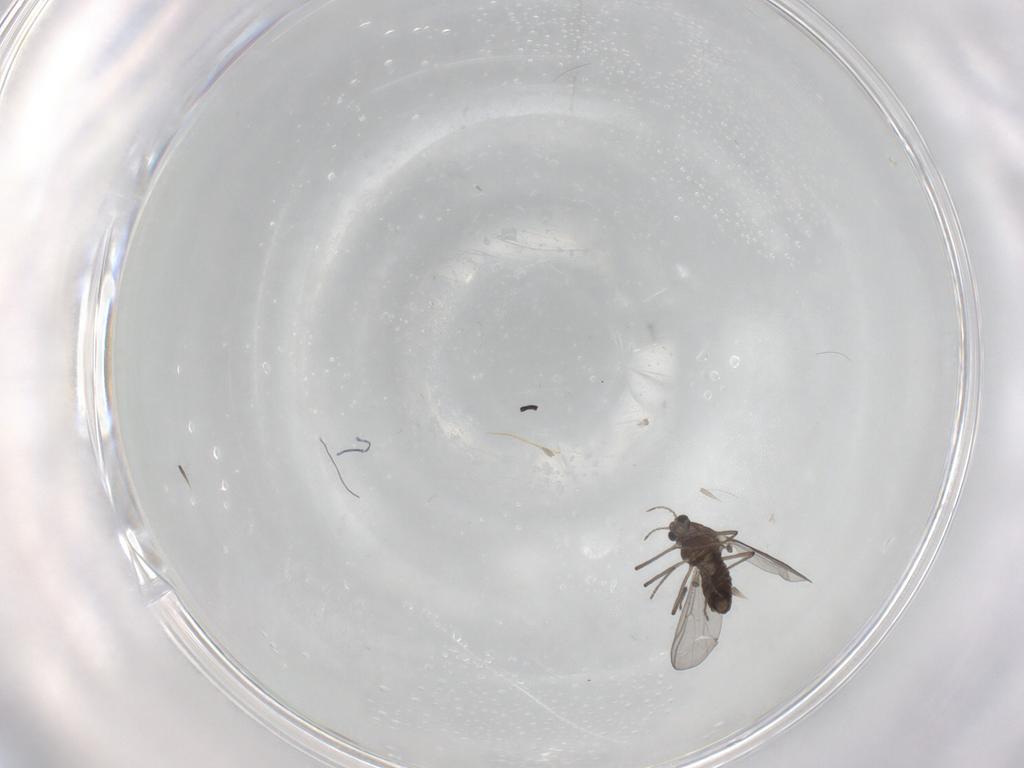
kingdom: Animalia
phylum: Arthropoda
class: Insecta
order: Diptera
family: Chironomidae
